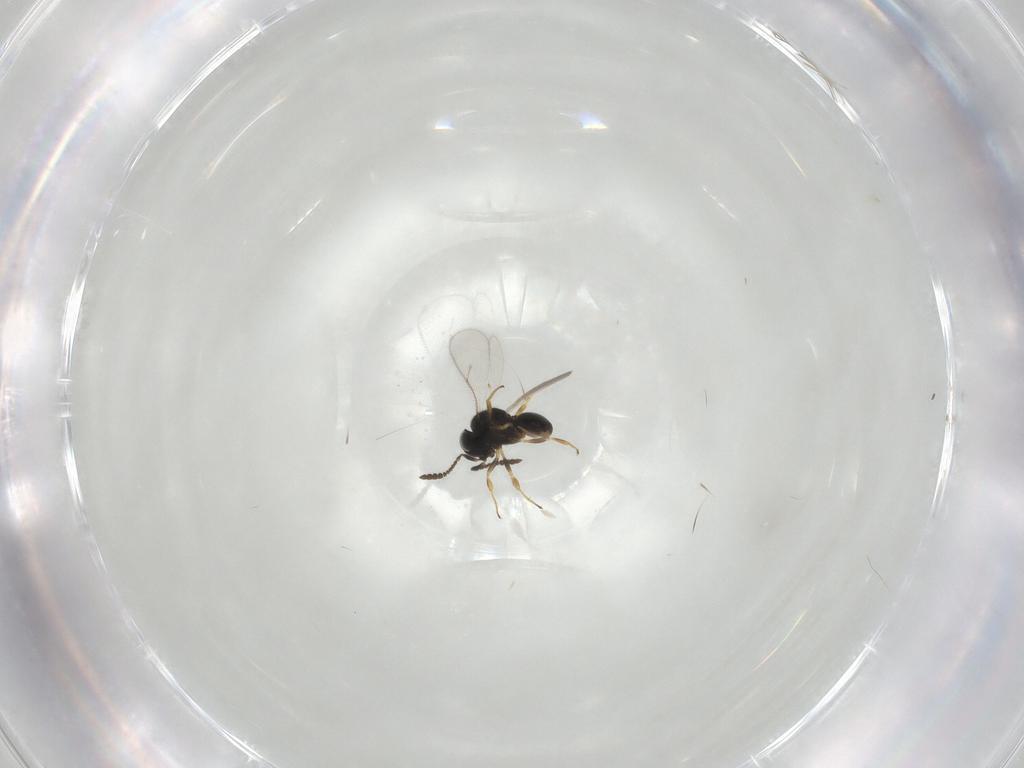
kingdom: Animalia
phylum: Arthropoda
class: Insecta
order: Hymenoptera
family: Scelionidae
